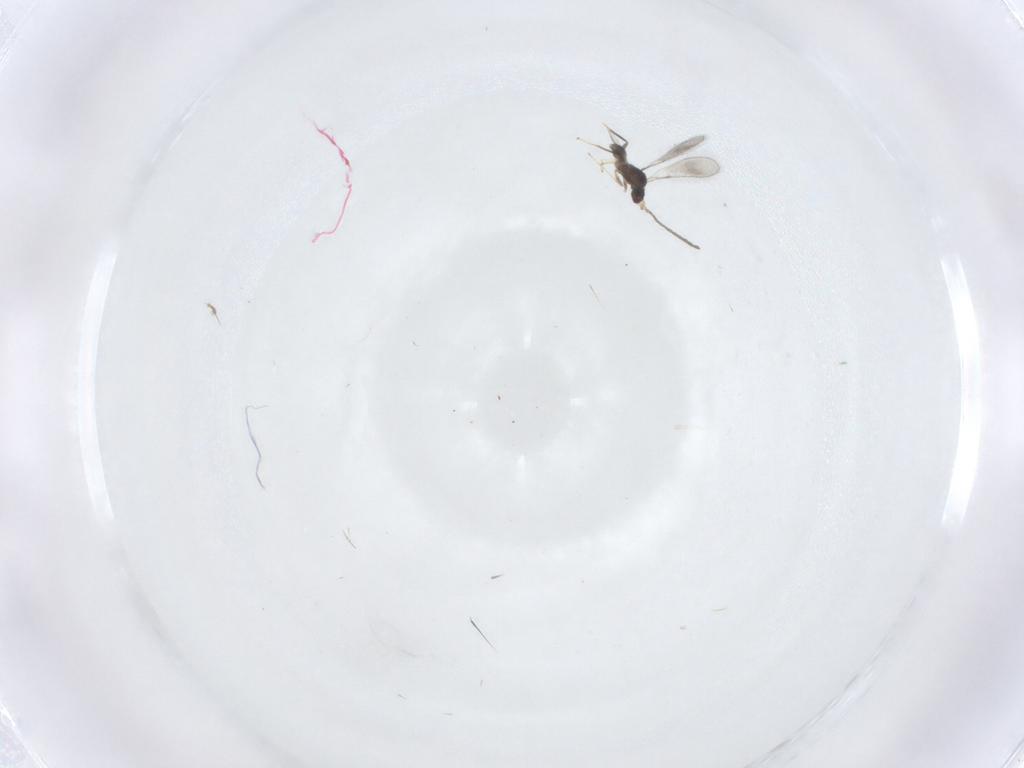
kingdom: Animalia
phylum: Arthropoda
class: Insecta
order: Hymenoptera
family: Mymaridae
